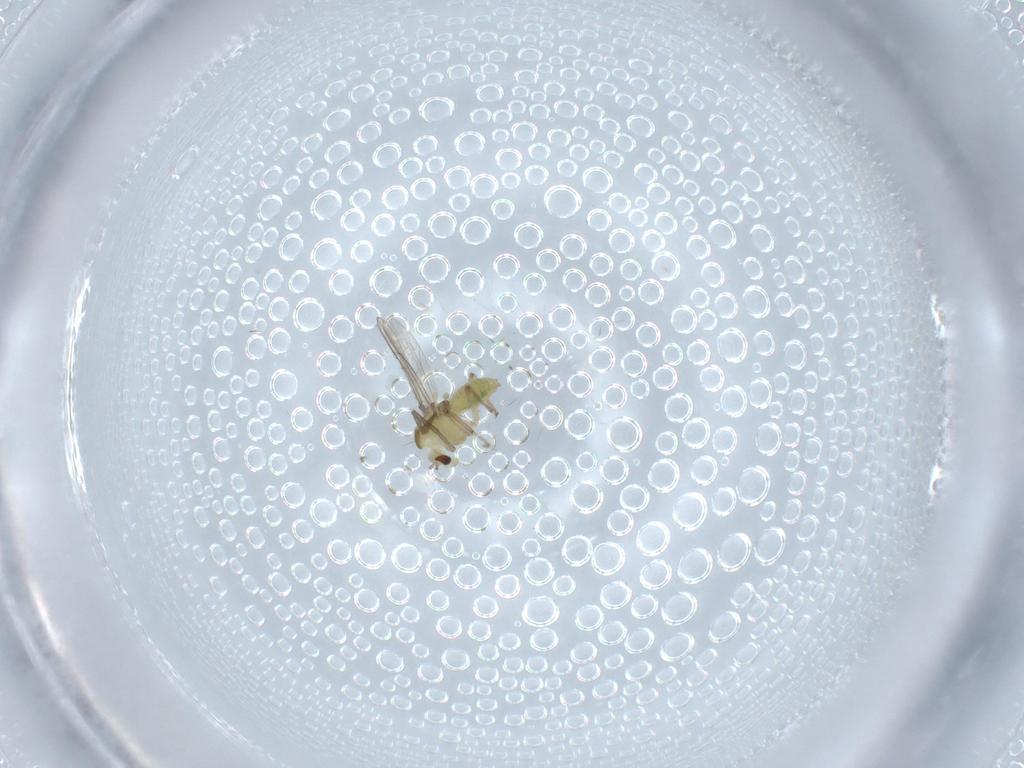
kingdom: Animalia
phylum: Arthropoda
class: Insecta
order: Diptera
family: Chironomidae
